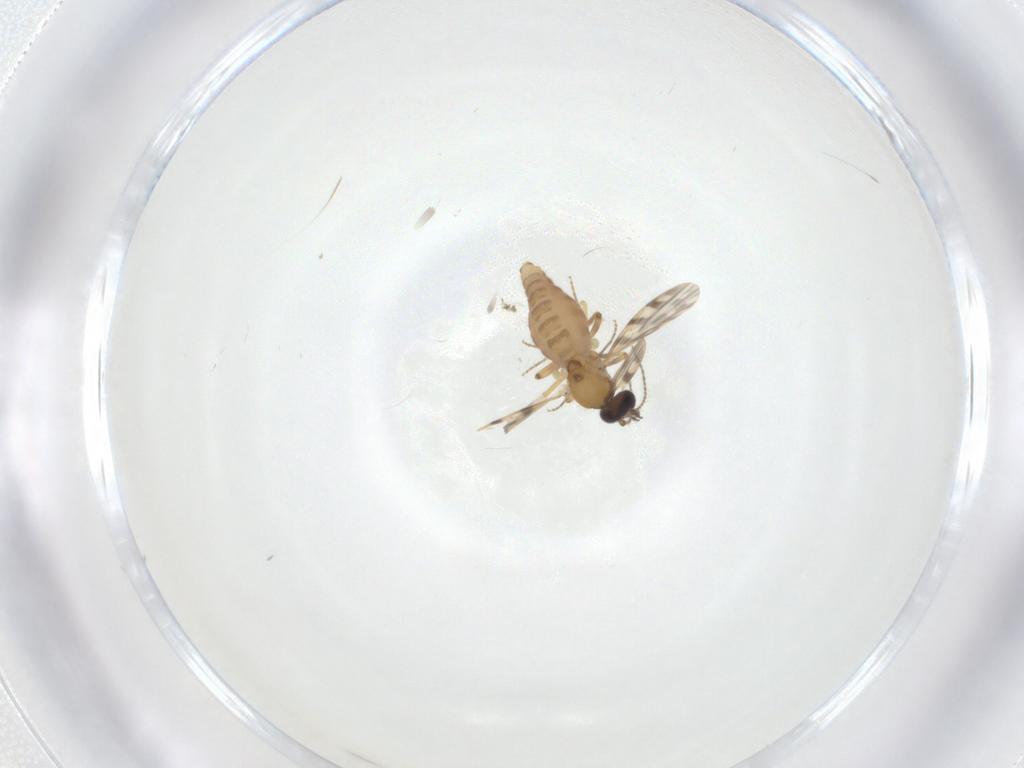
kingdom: Animalia
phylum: Arthropoda
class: Insecta
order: Diptera
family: Ceratopogonidae
